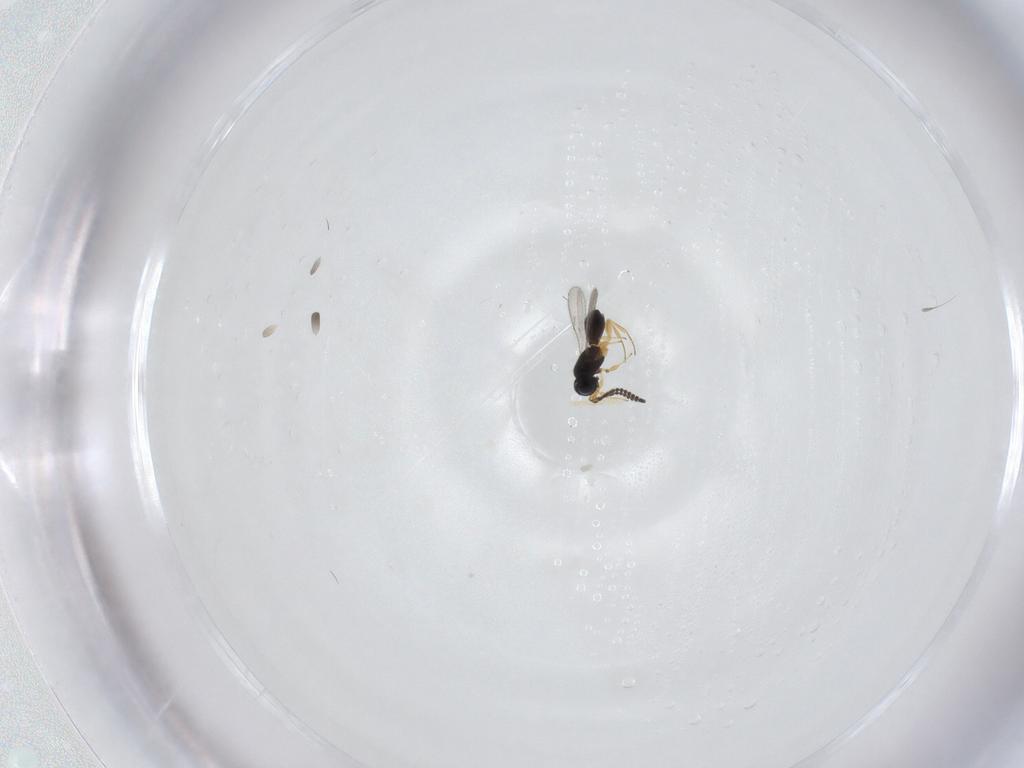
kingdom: Animalia
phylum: Arthropoda
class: Insecta
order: Hymenoptera
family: Scelionidae
